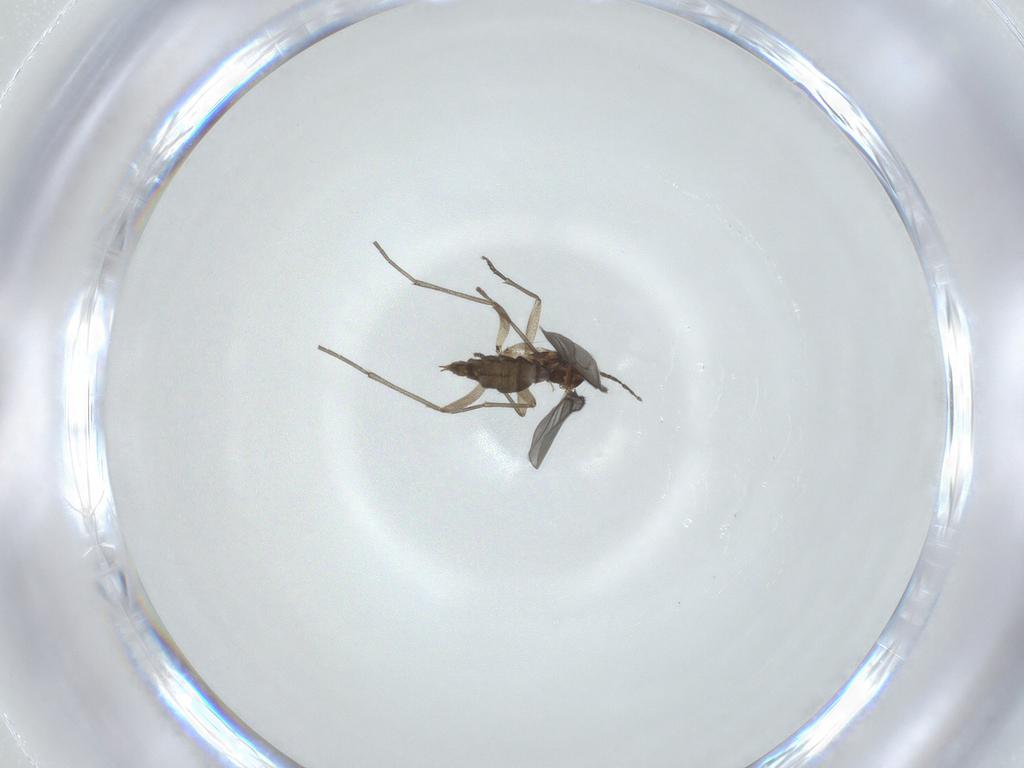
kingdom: Animalia
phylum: Arthropoda
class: Insecta
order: Diptera
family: Sciaridae
